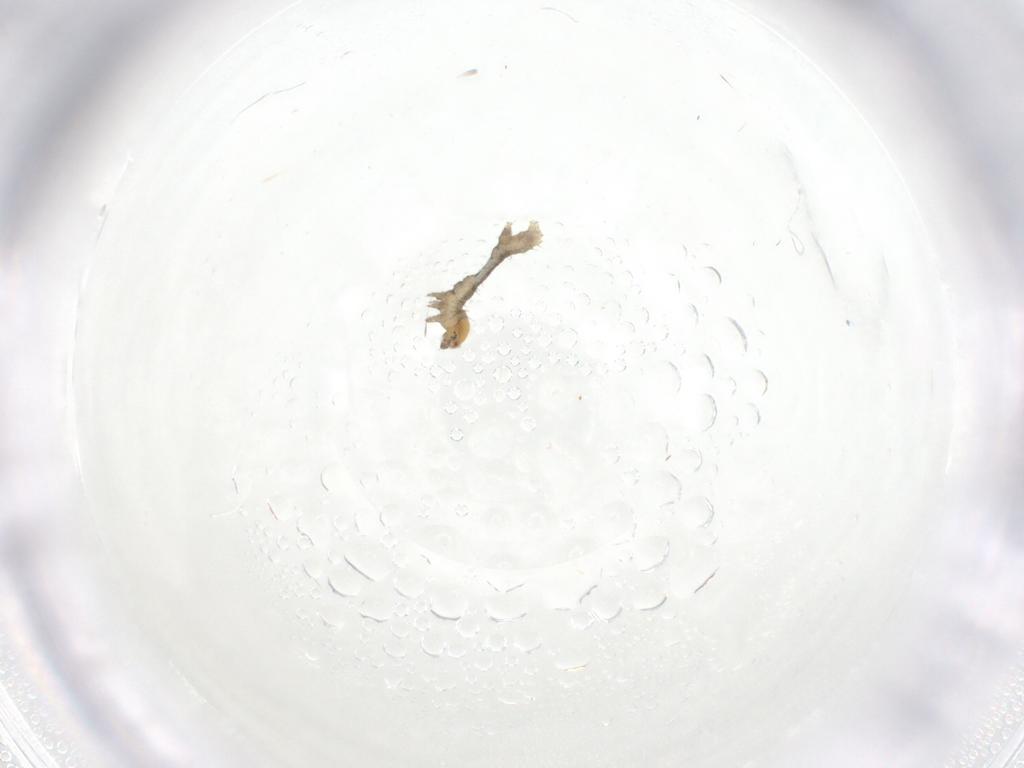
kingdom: Animalia
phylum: Arthropoda
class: Insecta
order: Lepidoptera
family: Geometridae
